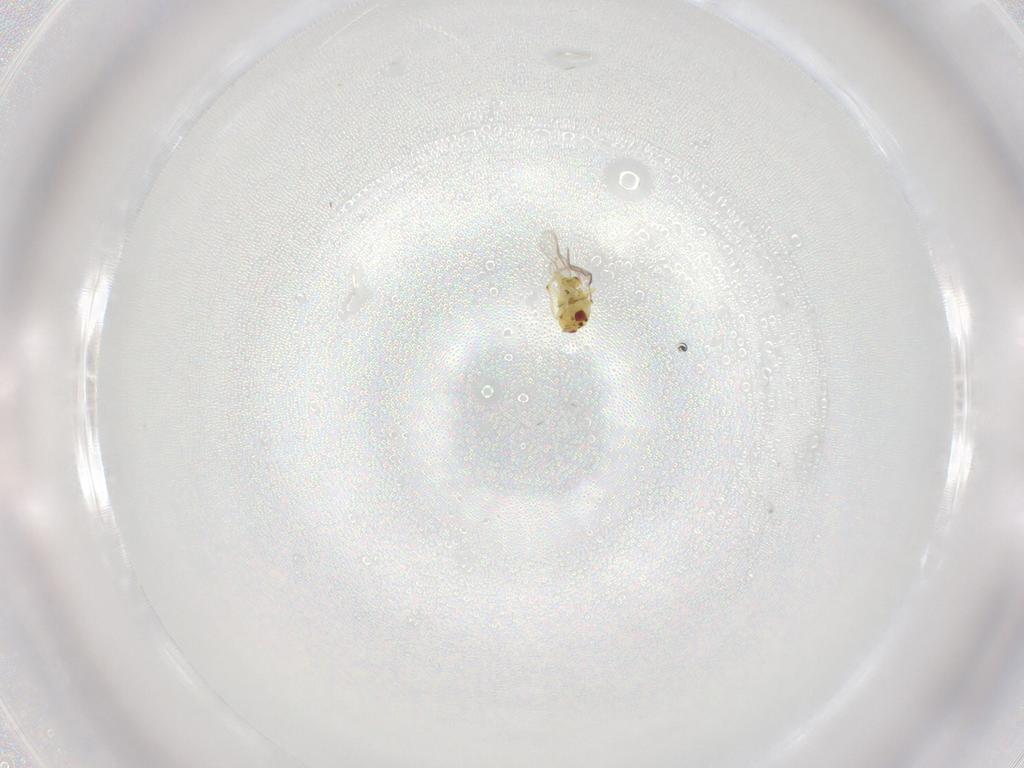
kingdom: Animalia
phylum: Arthropoda
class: Insecta
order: Hymenoptera
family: Eulophidae
